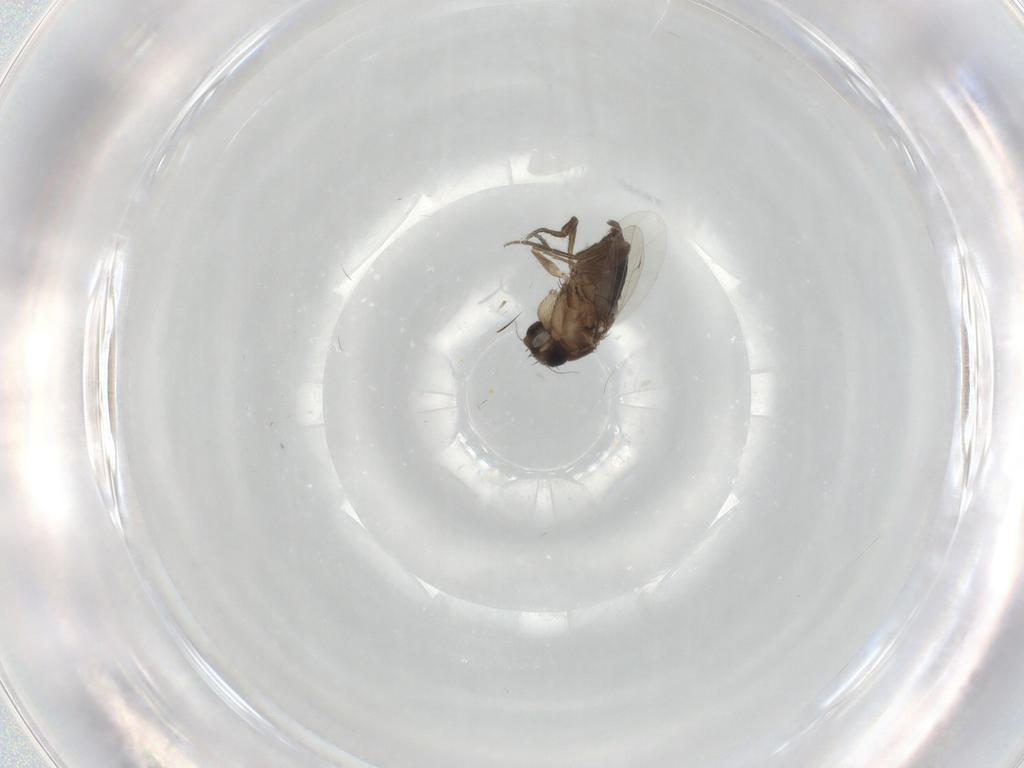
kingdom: Animalia
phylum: Arthropoda
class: Insecta
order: Diptera
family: Phoridae
